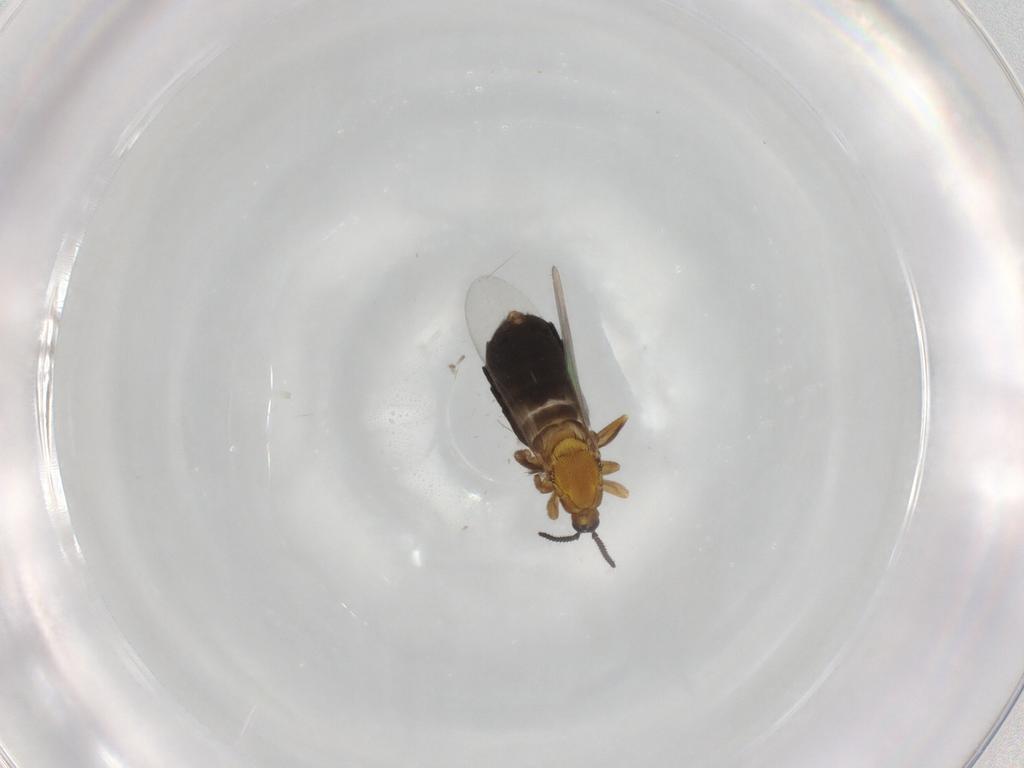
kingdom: Animalia
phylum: Arthropoda
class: Insecta
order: Diptera
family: Scatopsidae
